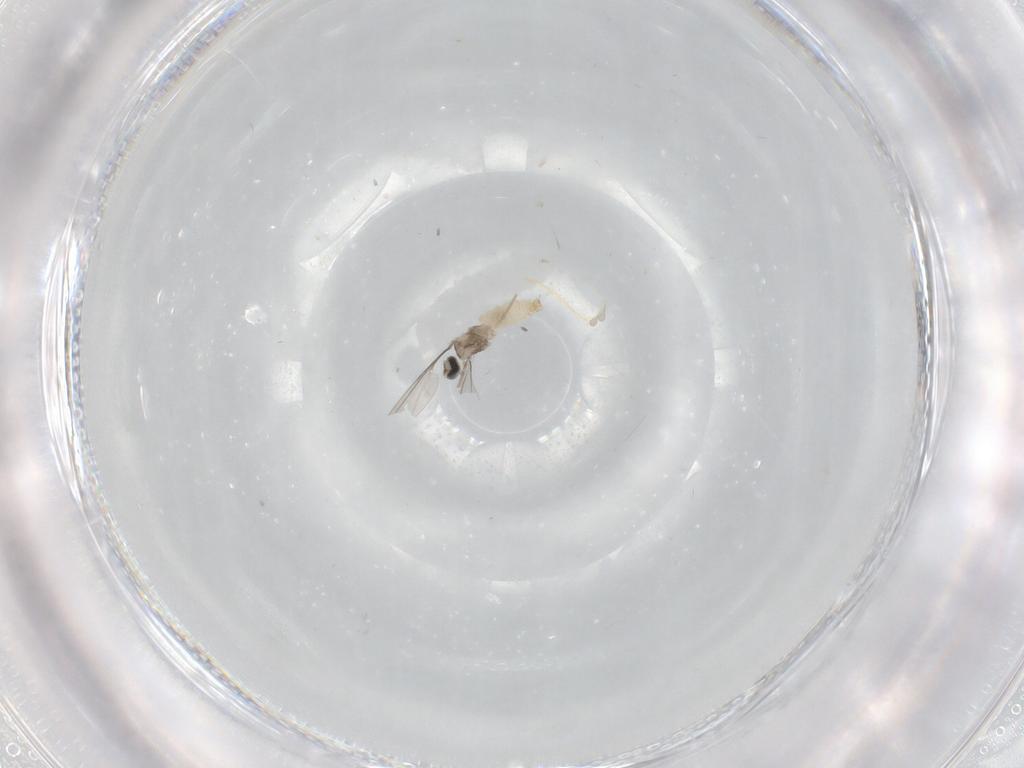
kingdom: Animalia
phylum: Arthropoda
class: Insecta
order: Diptera
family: Cecidomyiidae
